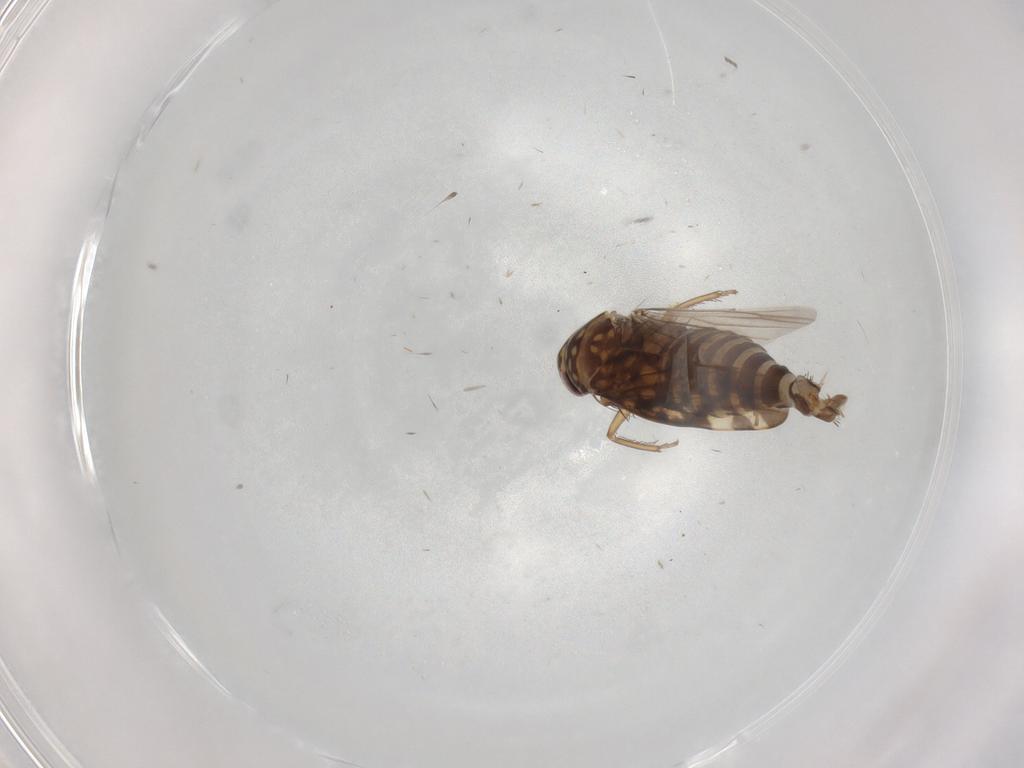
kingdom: Animalia
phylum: Arthropoda
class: Insecta
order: Hemiptera
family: Cicadellidae
